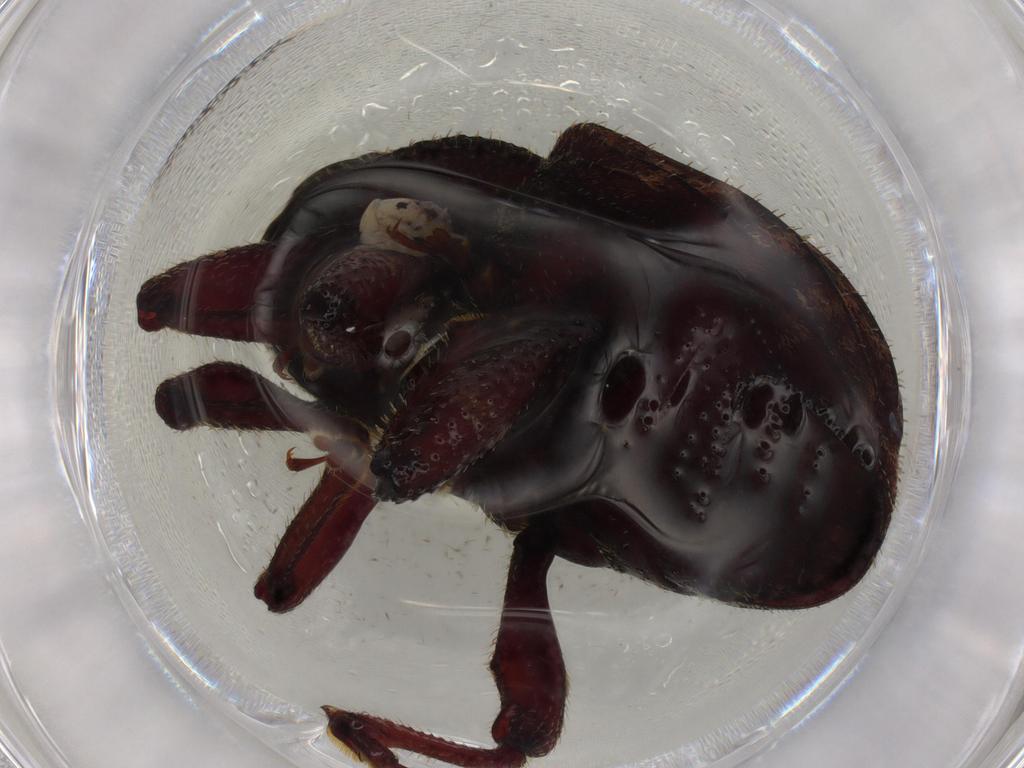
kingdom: Animalia
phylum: Arthropoda
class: Insecta
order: Coleoptera
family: Throscidae
